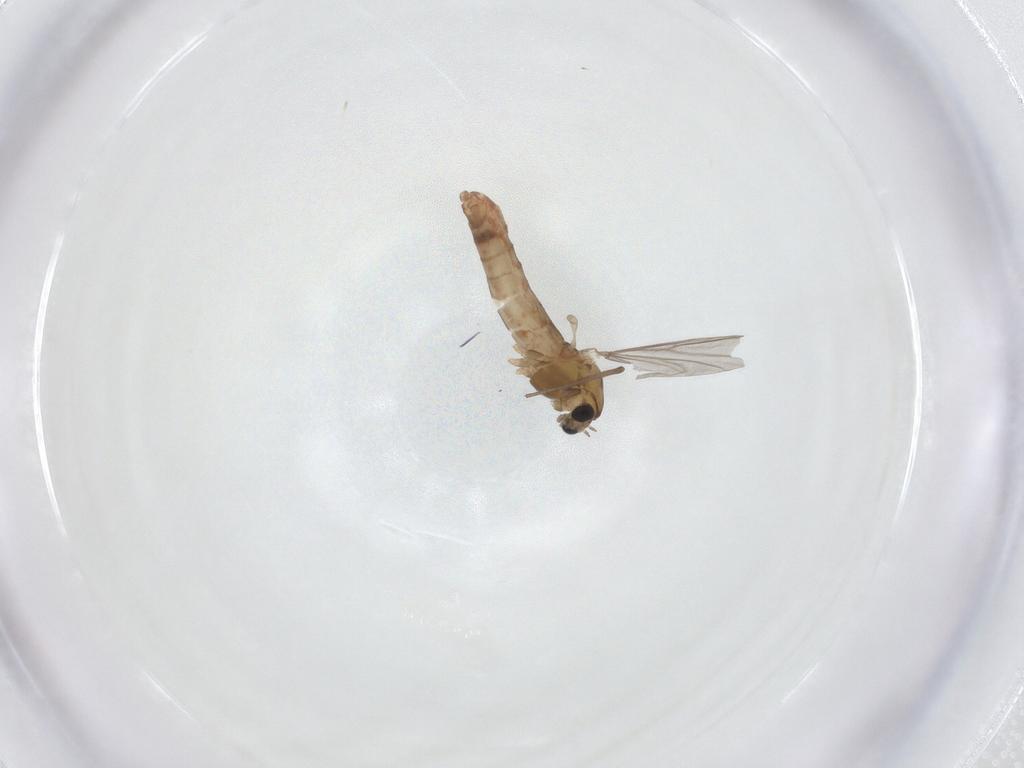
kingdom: Animalia
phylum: Arthropoda
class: Insecta
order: Diptera
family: Chironomidae
